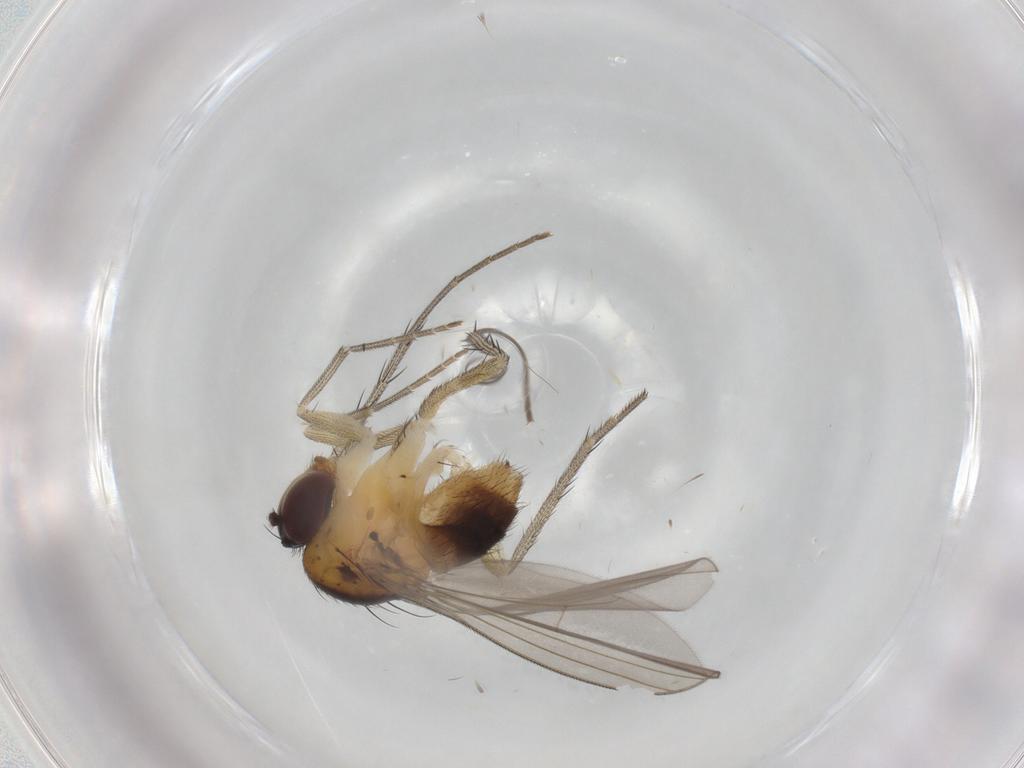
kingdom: Animalia
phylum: Arthropoda
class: Insecta
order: Diptera
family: Dolichopodidae
